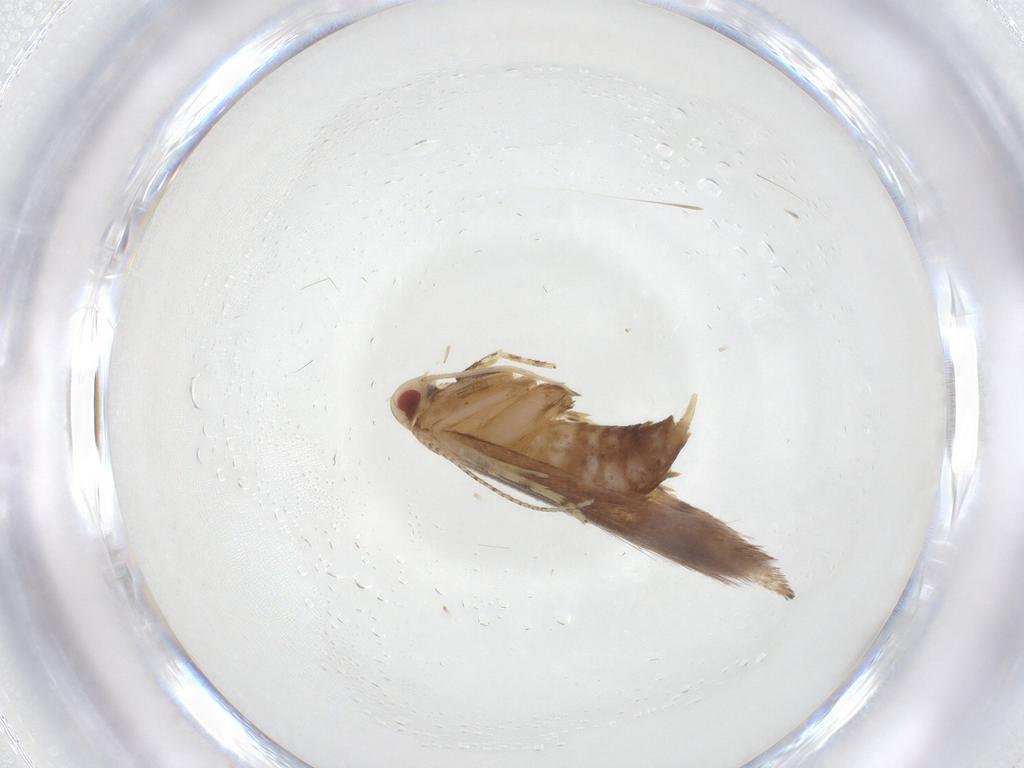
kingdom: Animalia
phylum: Arthropoda
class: Insecta
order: Lepidoptera
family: Cosmopterigidae
